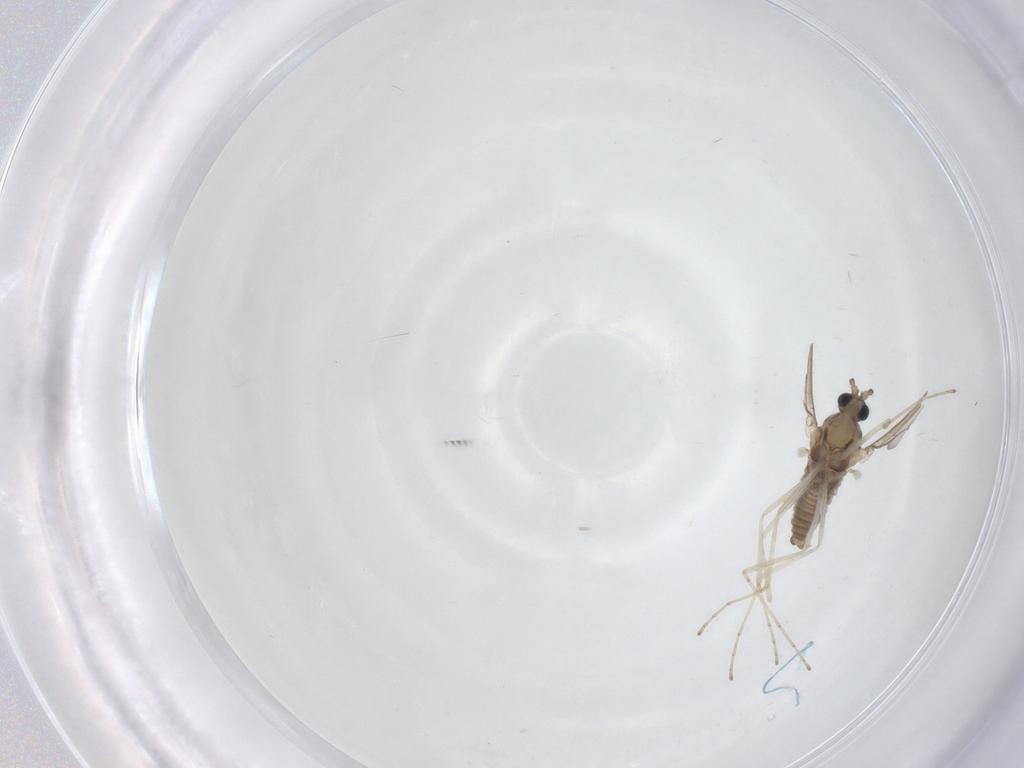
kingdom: Animalia
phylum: Arthropoda
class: Insecta
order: Diptera
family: Cecidomyiidae
